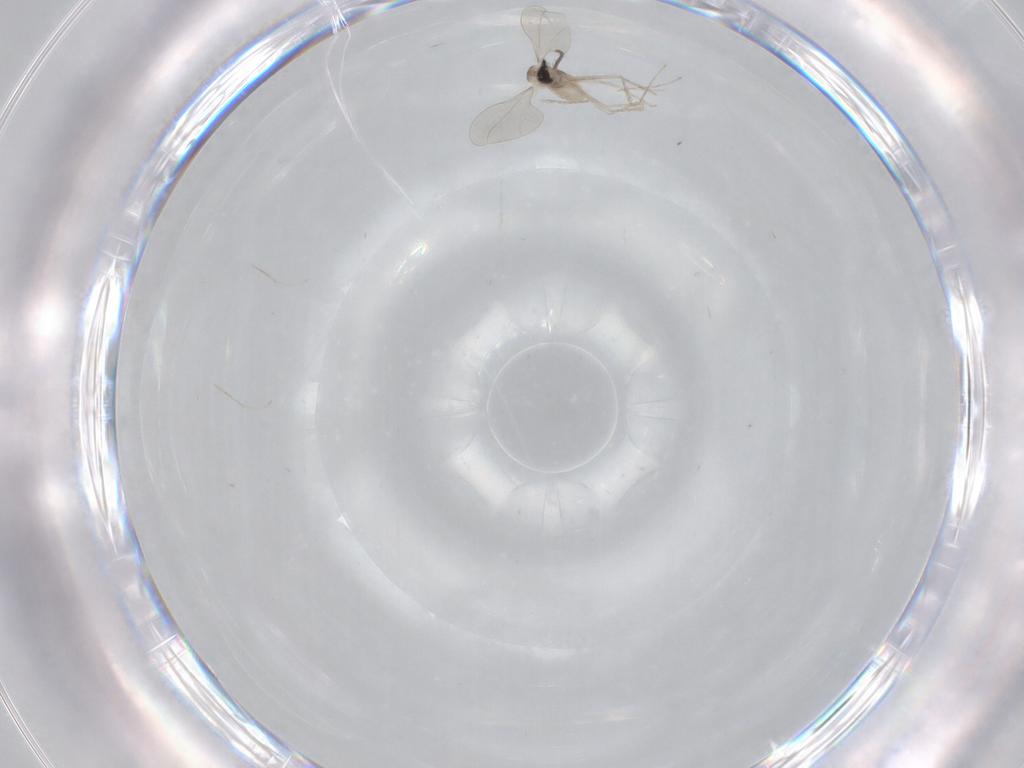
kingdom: Animalia
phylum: Arthropoda
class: Insecta
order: Diptera
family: Cecidomyiidae
